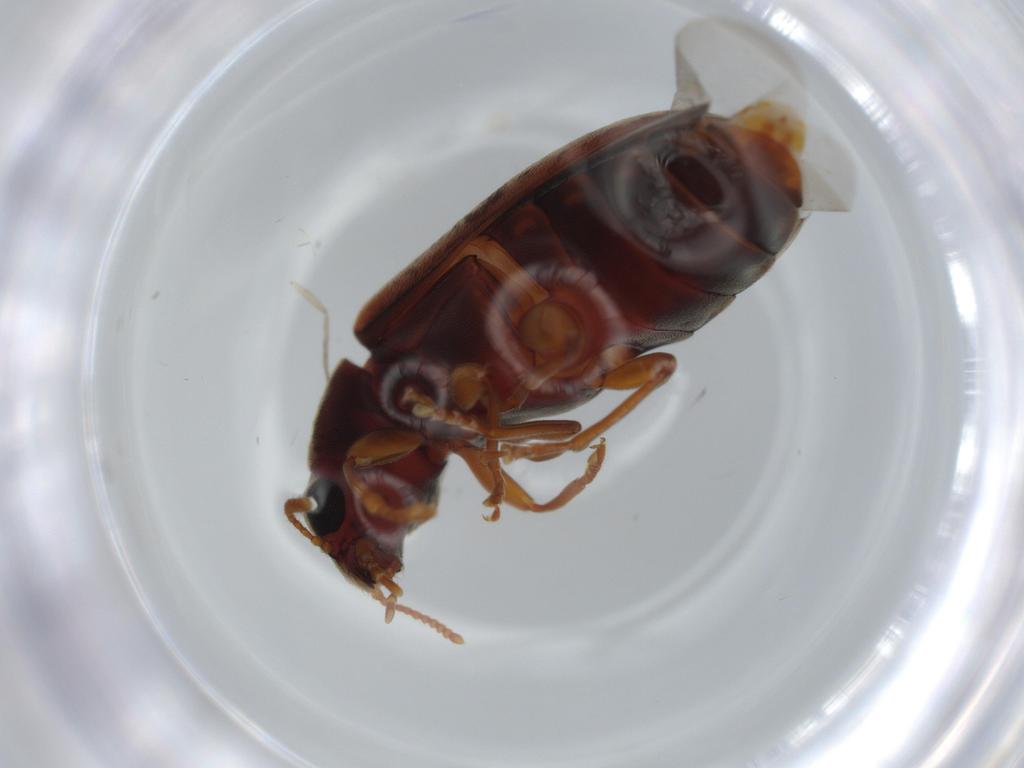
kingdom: Animalia
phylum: Arthropoda
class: Insecta
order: Coleoptera
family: Mycteridae
